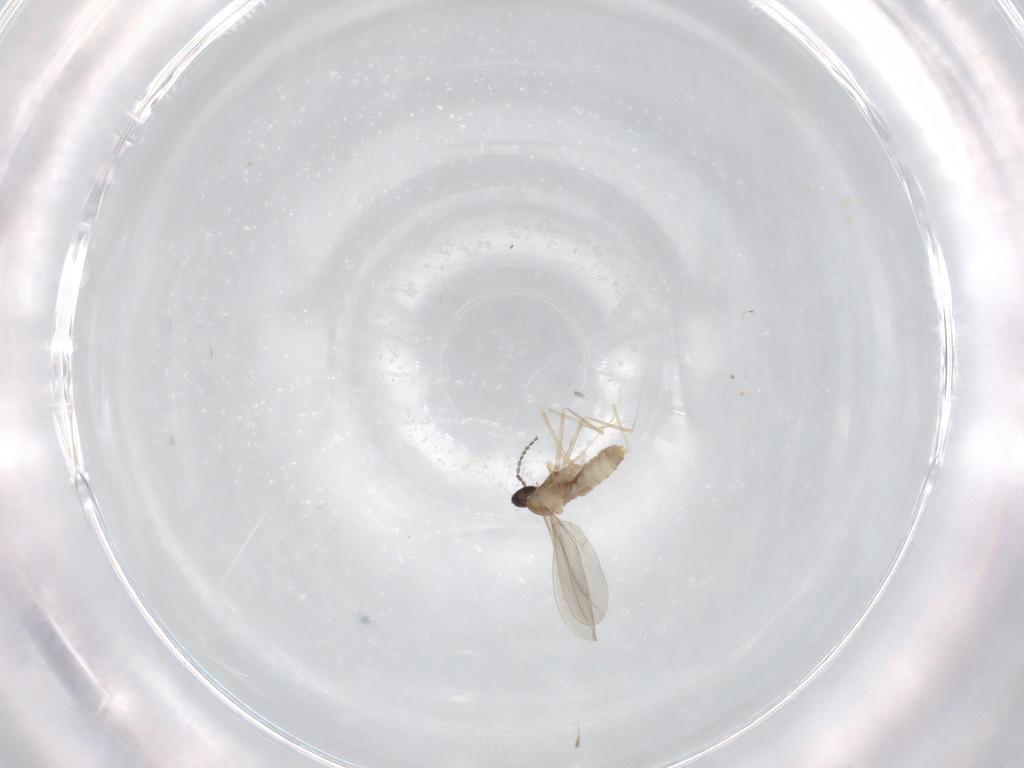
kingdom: Animalia
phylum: Arthropoda
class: Insecta
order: Diptera
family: Cecidomyiidae
